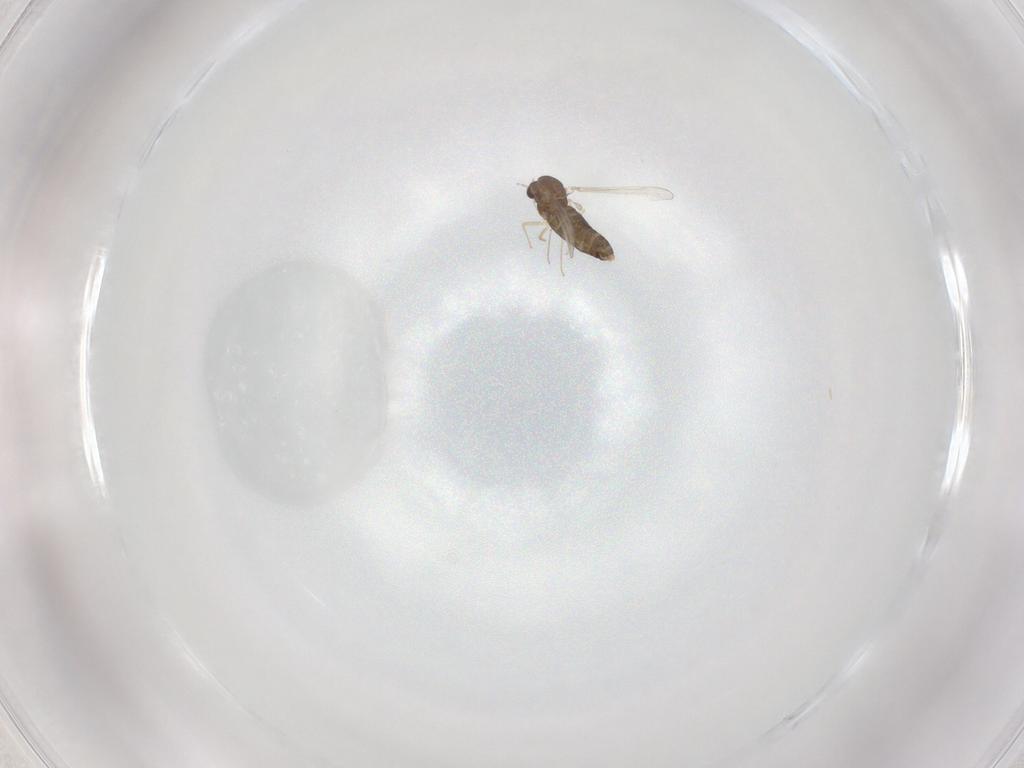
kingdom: Animalia
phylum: Arthropoda
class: Insecta
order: Diptera
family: Chironomidae
